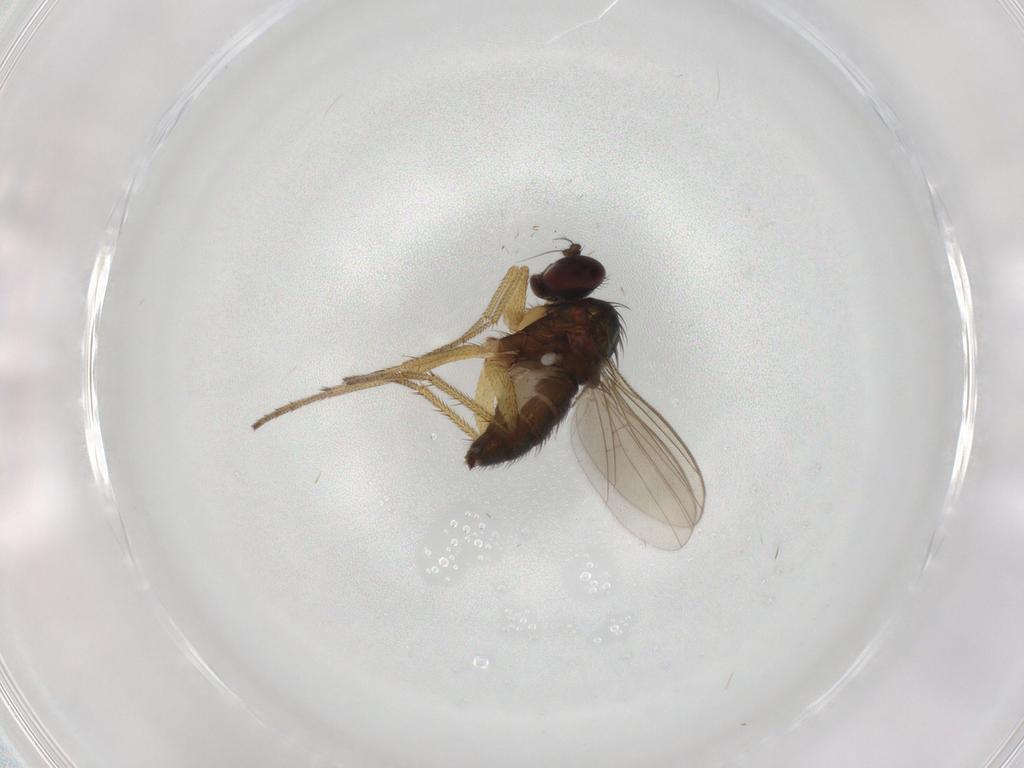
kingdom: Animalia
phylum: Arthropoda
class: Insecta
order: Diptera
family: Dolichopodidae
